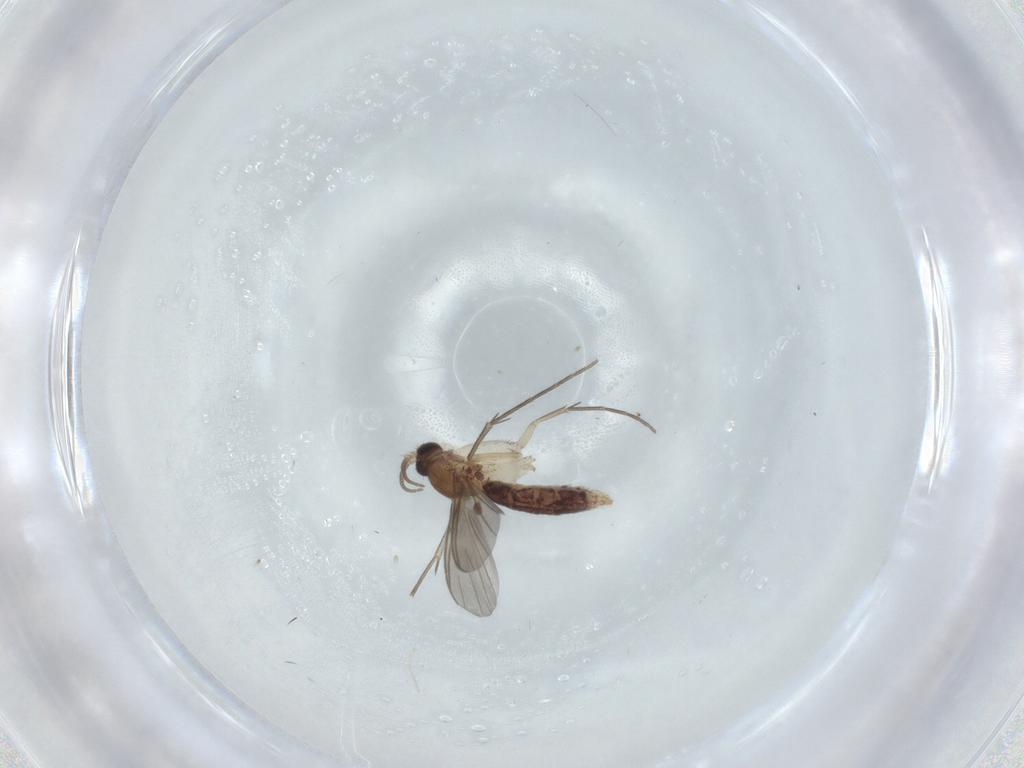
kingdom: Animalia
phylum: Arthropoda
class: Insecta
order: Diptera
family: Mycetophilidae
